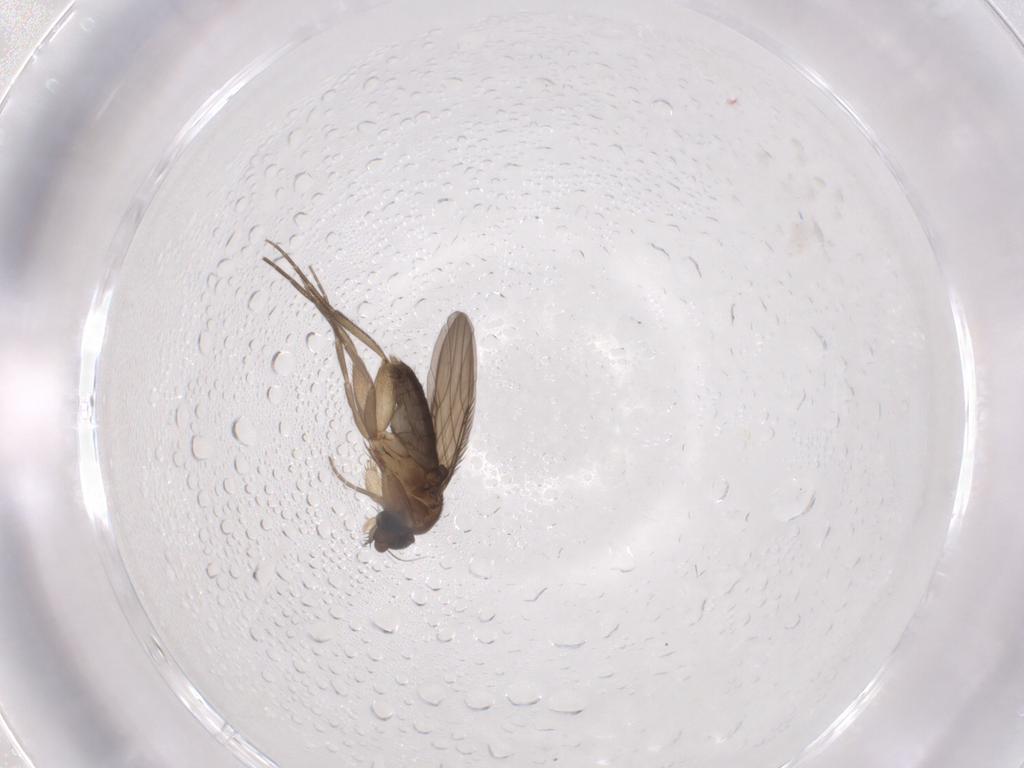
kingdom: Animalia
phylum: Arthropoda
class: Insecta
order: Diptera
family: Phoridae
